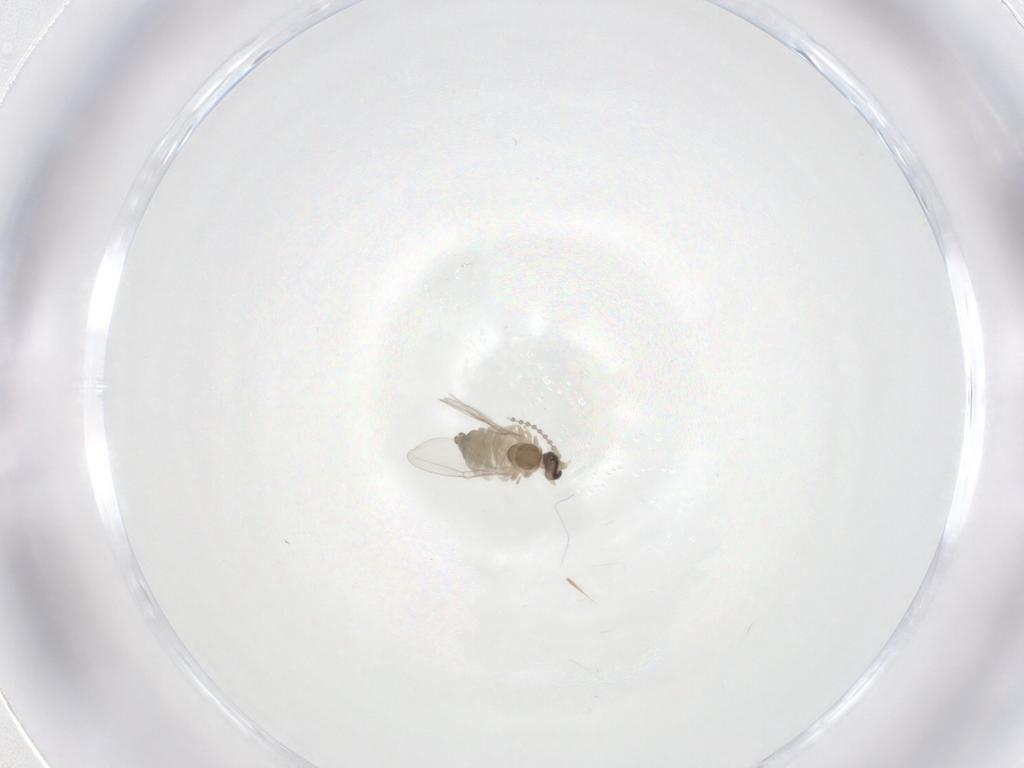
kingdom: Animalia
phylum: Arthropoda
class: Insecta
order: Diptera
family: Cecidomyiidae
